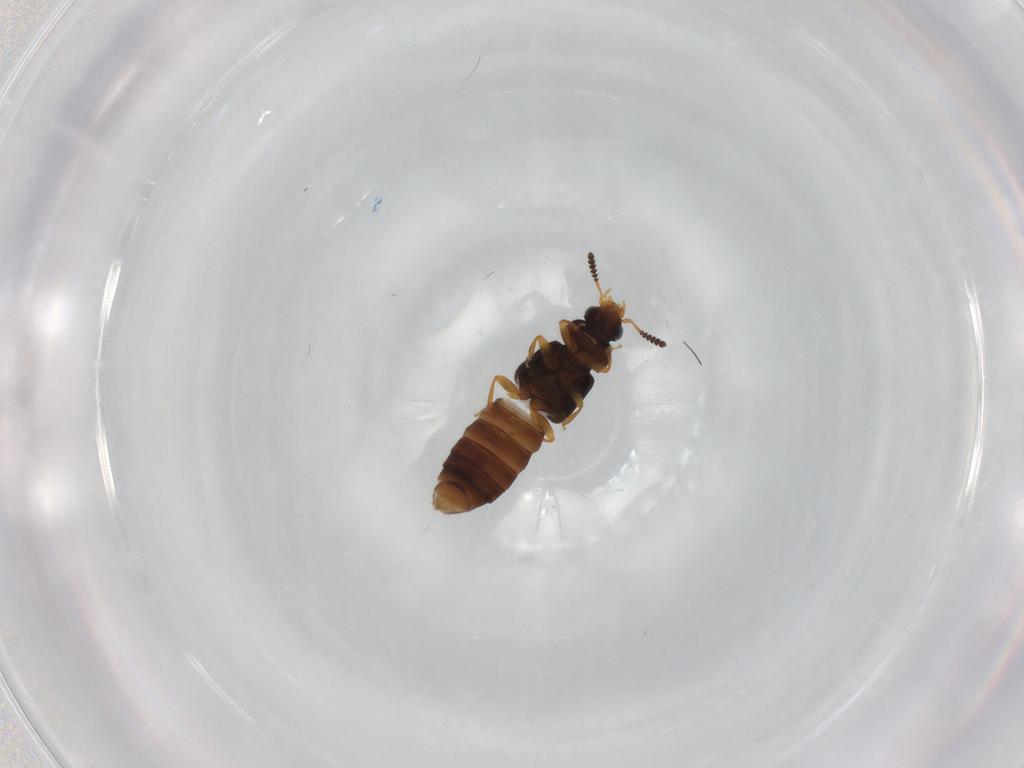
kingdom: Animalia
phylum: Arthropoda
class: Insecta
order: Coleoptera
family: Staphylinidae
